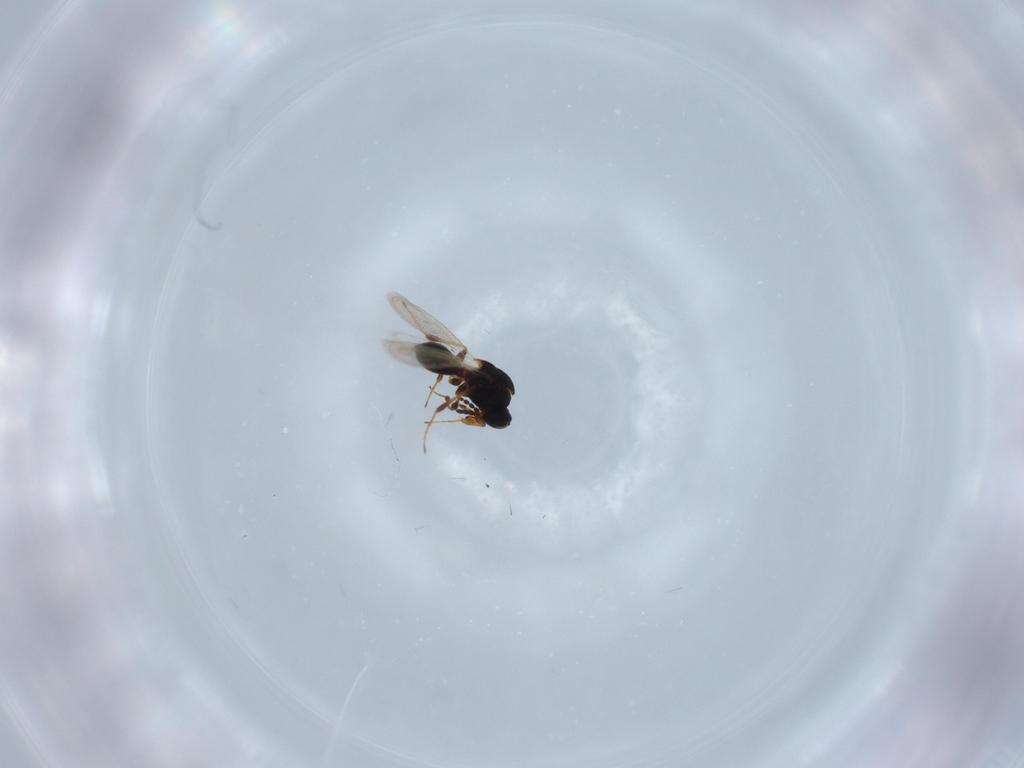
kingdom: Animalia
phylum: Arthropoda
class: Insecta
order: Hymenoptera
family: Platygastridae
